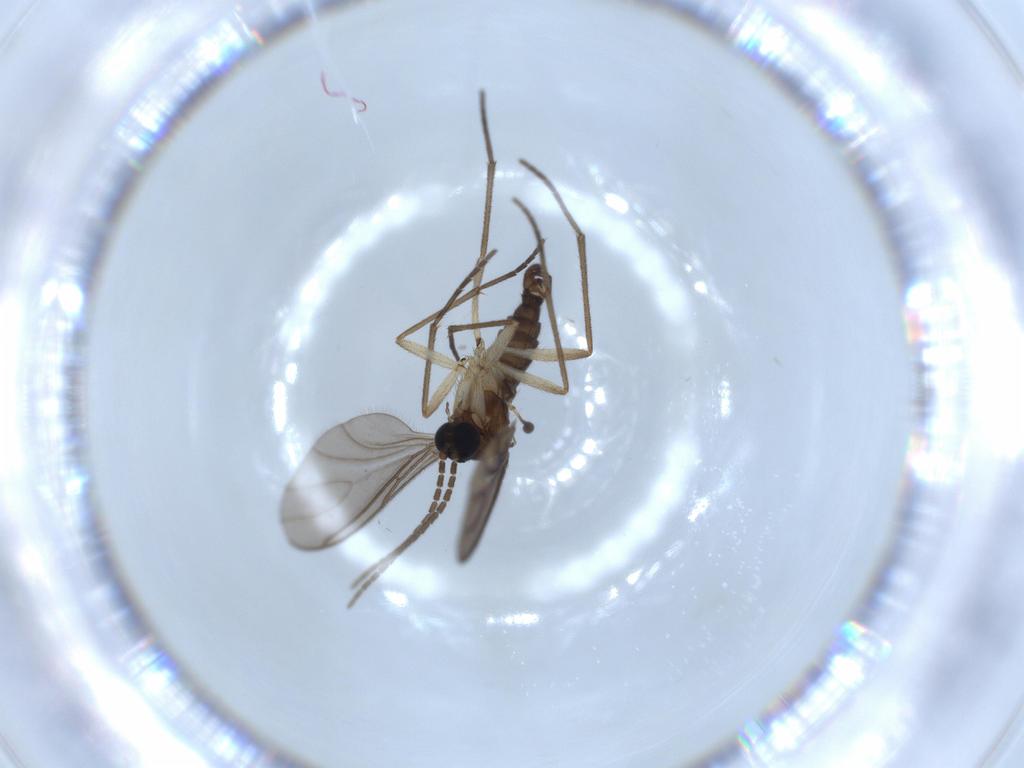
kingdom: Animalia
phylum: Arthropoda
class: Insecta
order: Diptera
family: Sciaridae
